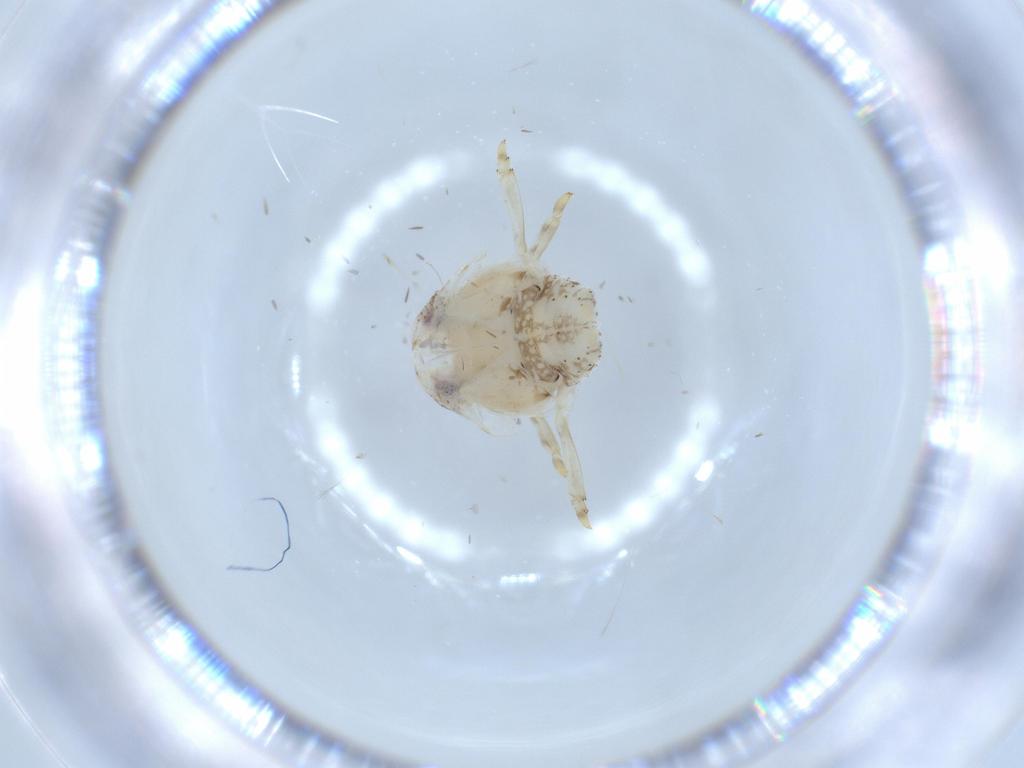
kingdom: Animalia
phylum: Arthropoda
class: Insecta
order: Hemiptera
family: Acanaloniidae
